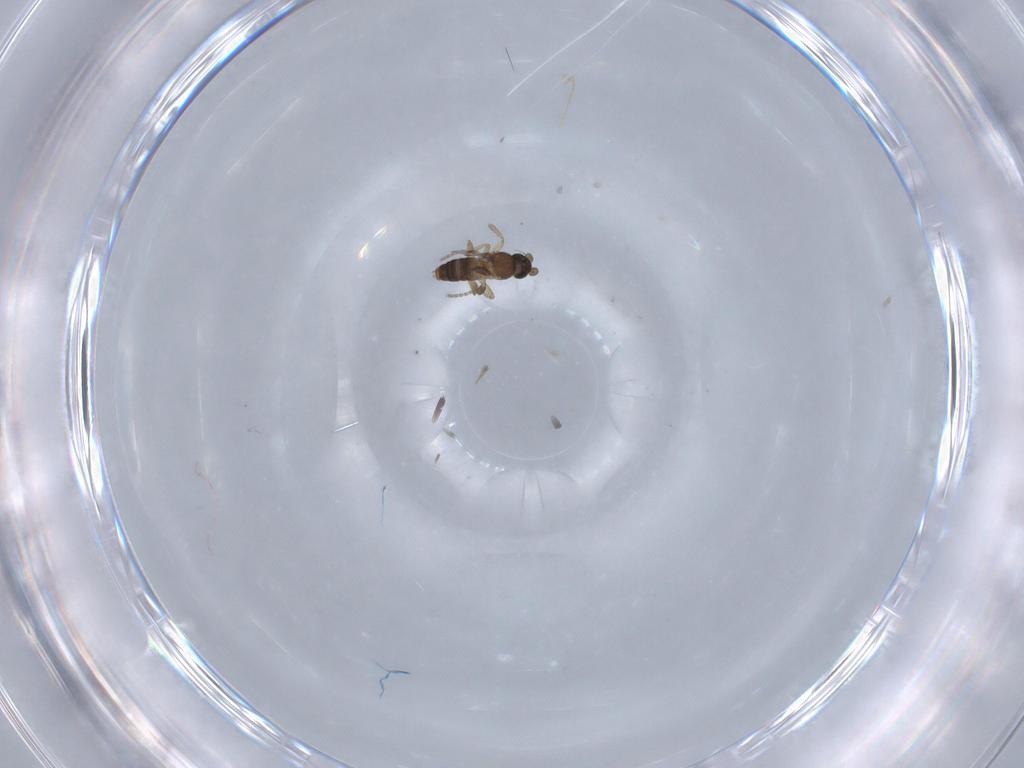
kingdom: Animalia
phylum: Arthropoda
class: Insecta
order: Diptera
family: Phoridae
